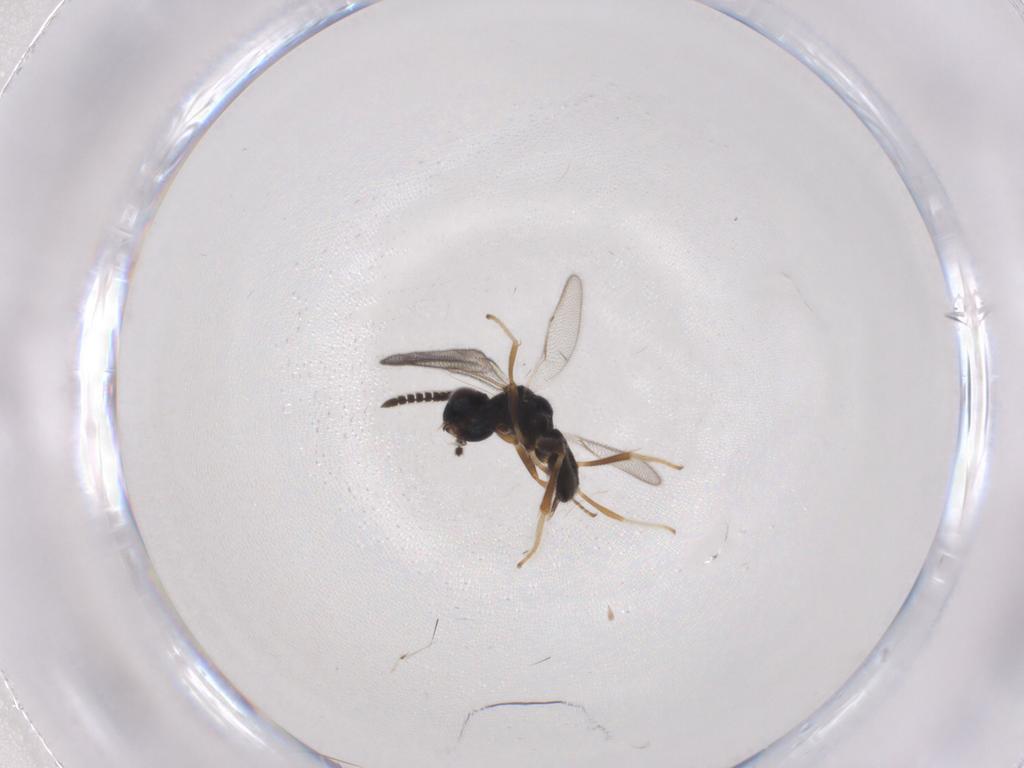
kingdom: Animalia
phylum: Arthropoda
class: Insecta
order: Hymenoptera
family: Cleonyminae
